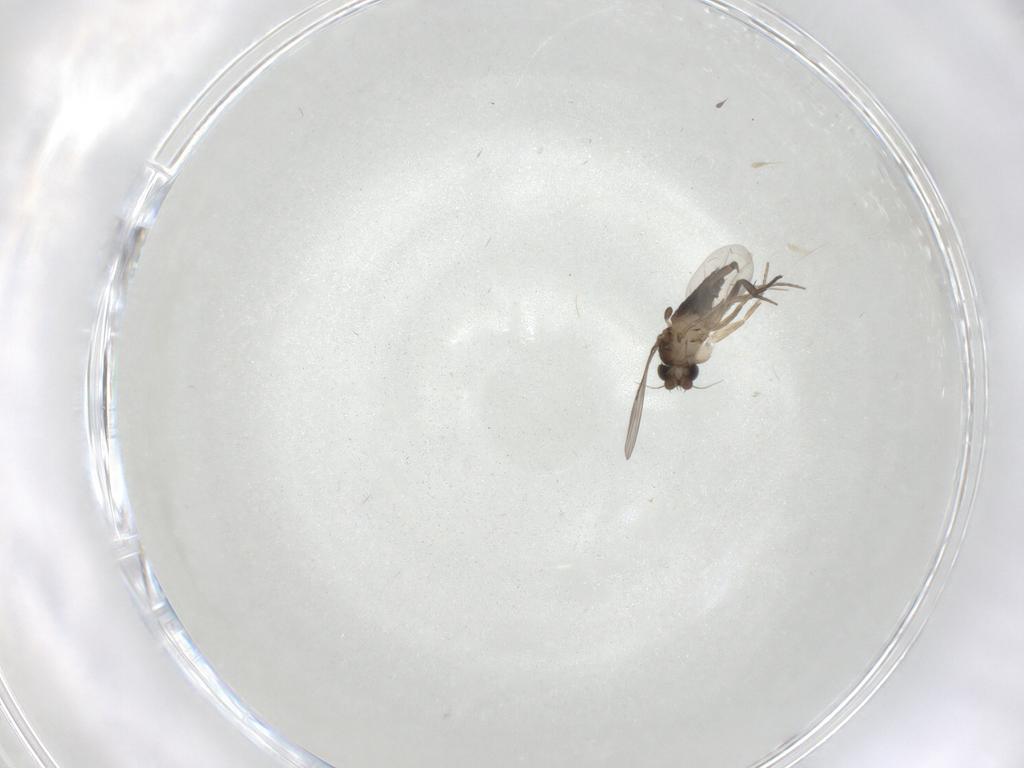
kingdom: Animalia
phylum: Arthropoda
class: Insecta
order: Diptera
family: Phoridae
